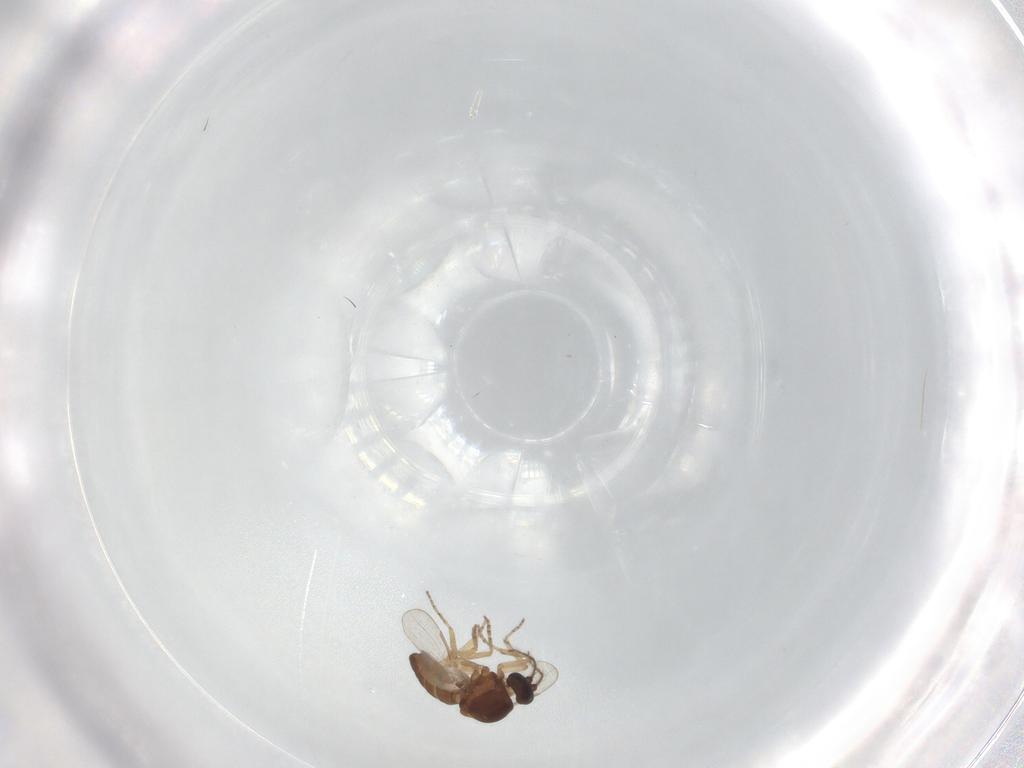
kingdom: Animalia
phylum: Arthropoda
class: Insecta
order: Diptera
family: Ceratopogonidae
